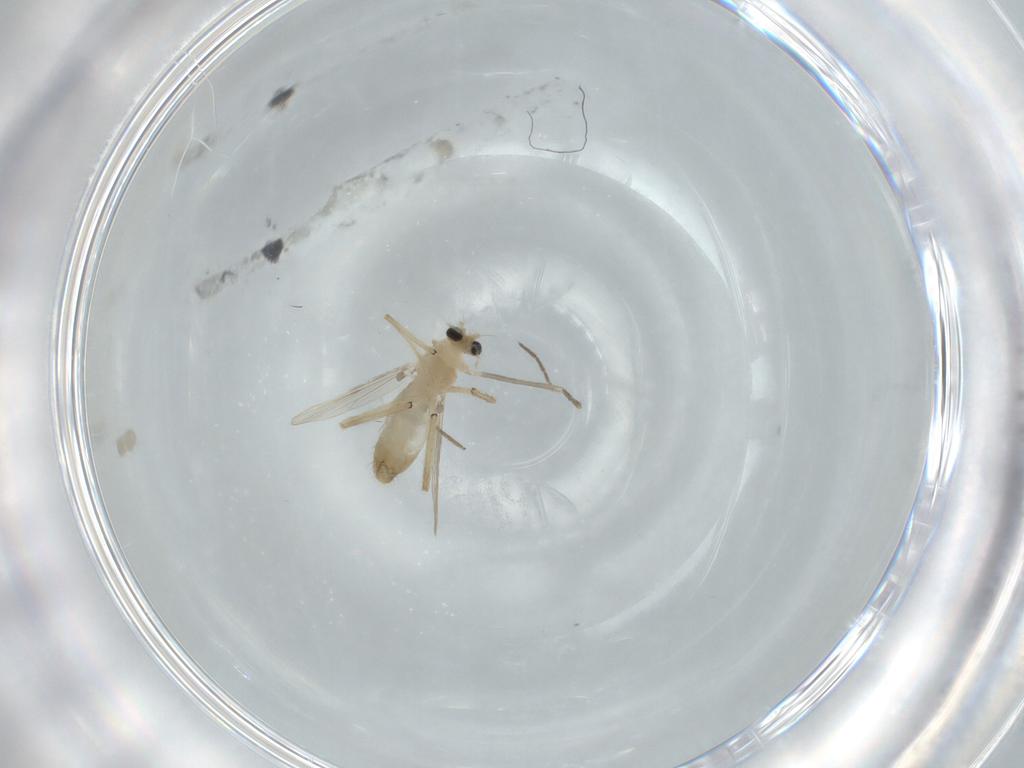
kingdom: Animalia
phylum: Arthropoda
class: Insecta
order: Diptera
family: Chironomidae
